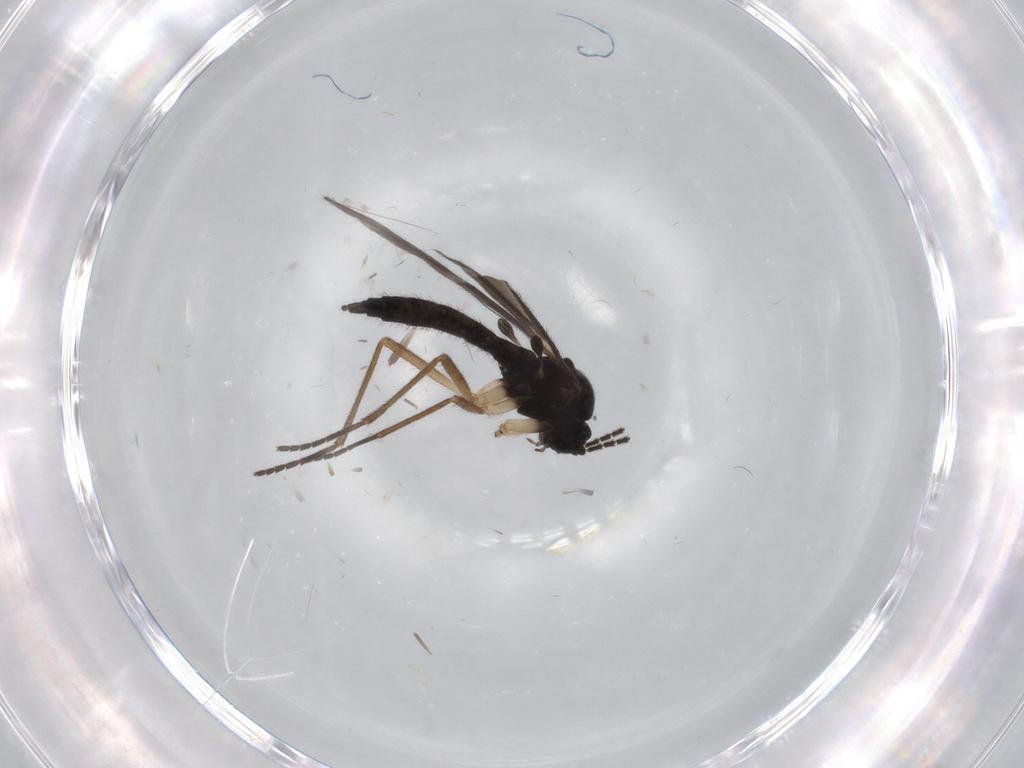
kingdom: Animalia
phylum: Arthropoda
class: Insecta
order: Diptera
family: Sciaridae
